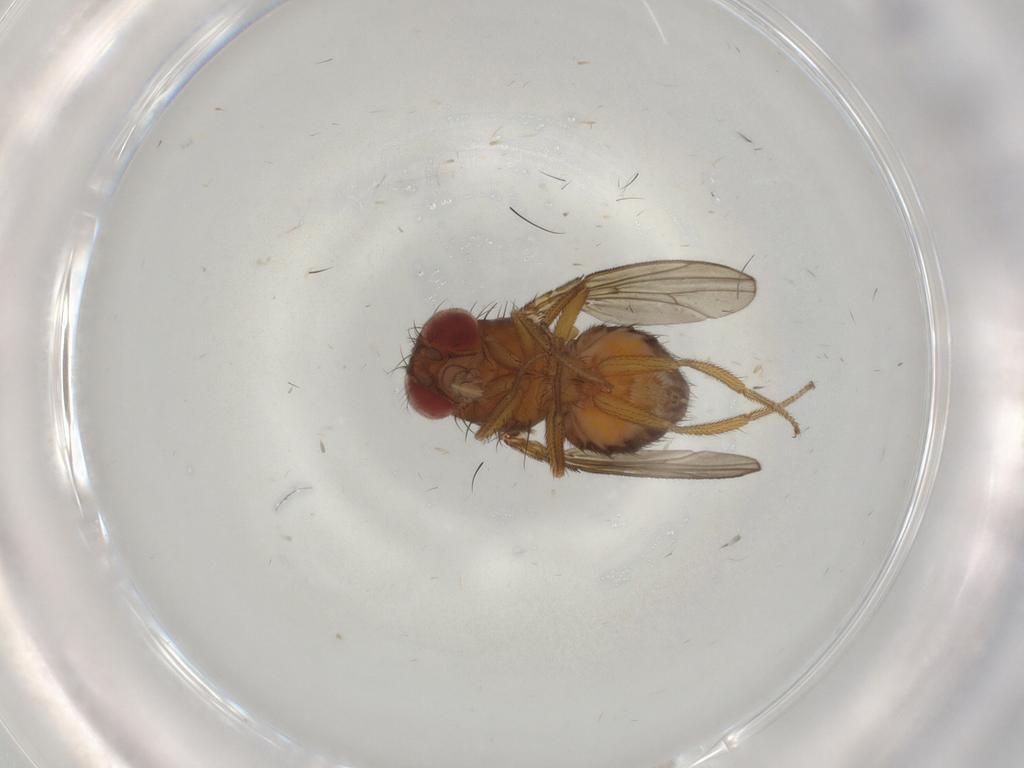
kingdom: Animalia
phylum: Arthropoda
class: Insecta
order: Diptera
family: Drosophilidae
